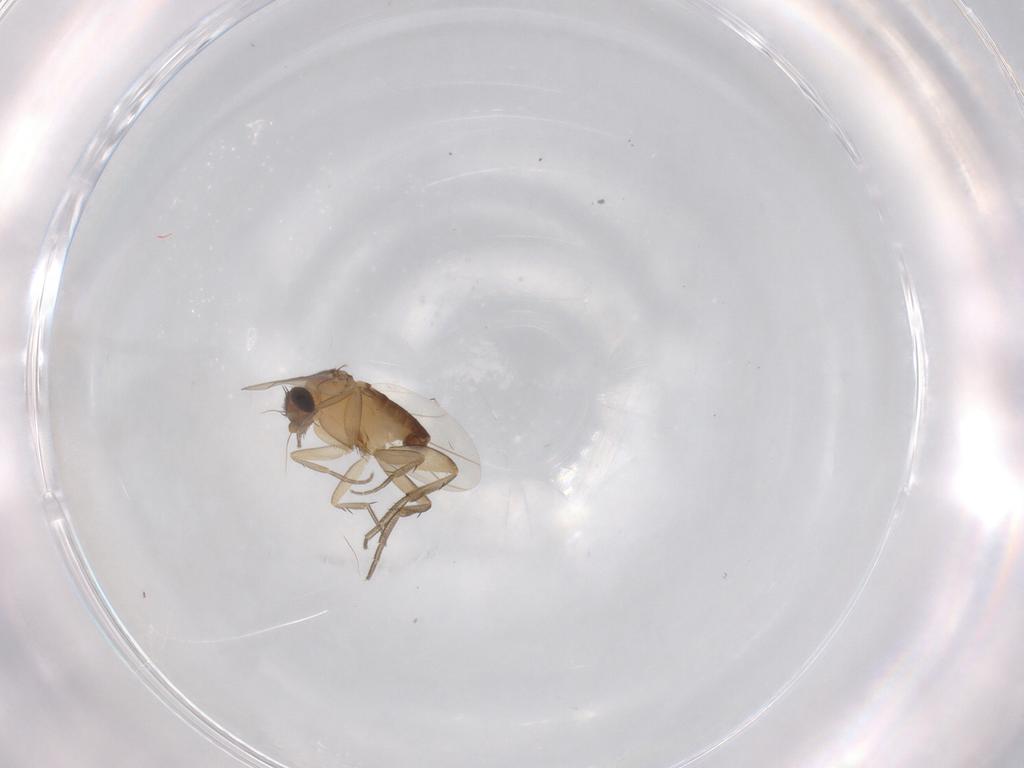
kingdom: Animalia
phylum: Arthropoda
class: Insecta
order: Diptera
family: Phoridae
